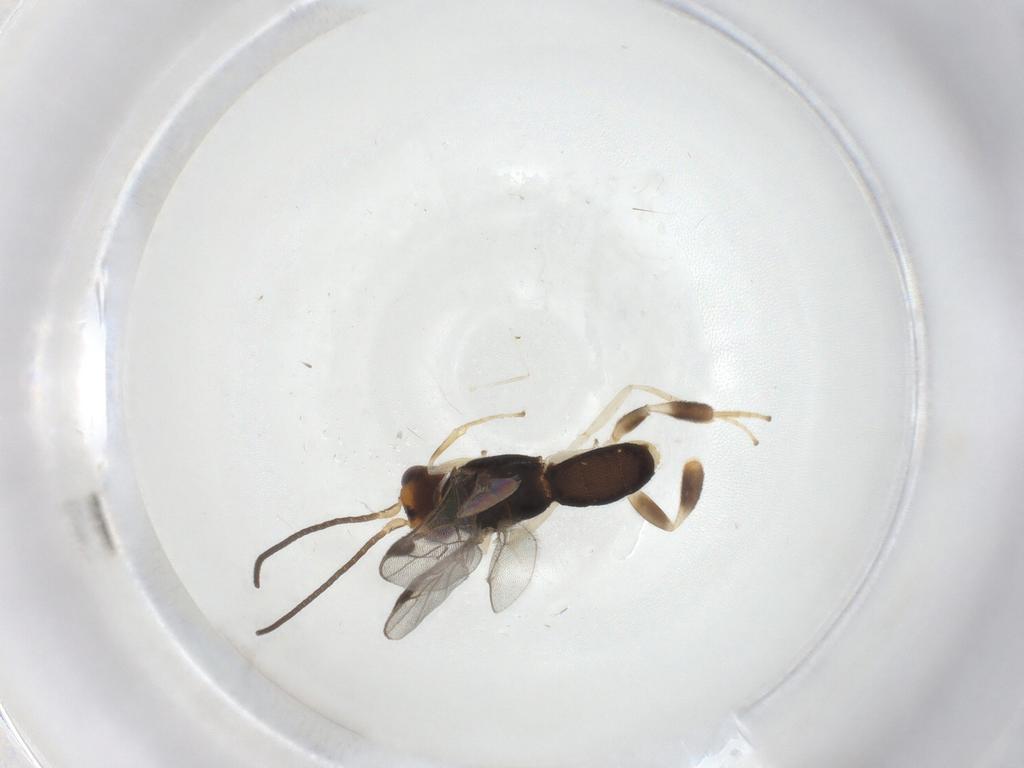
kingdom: Animalia
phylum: Arthropoda
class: Insecta
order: Hymenoptera
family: Braconidae
